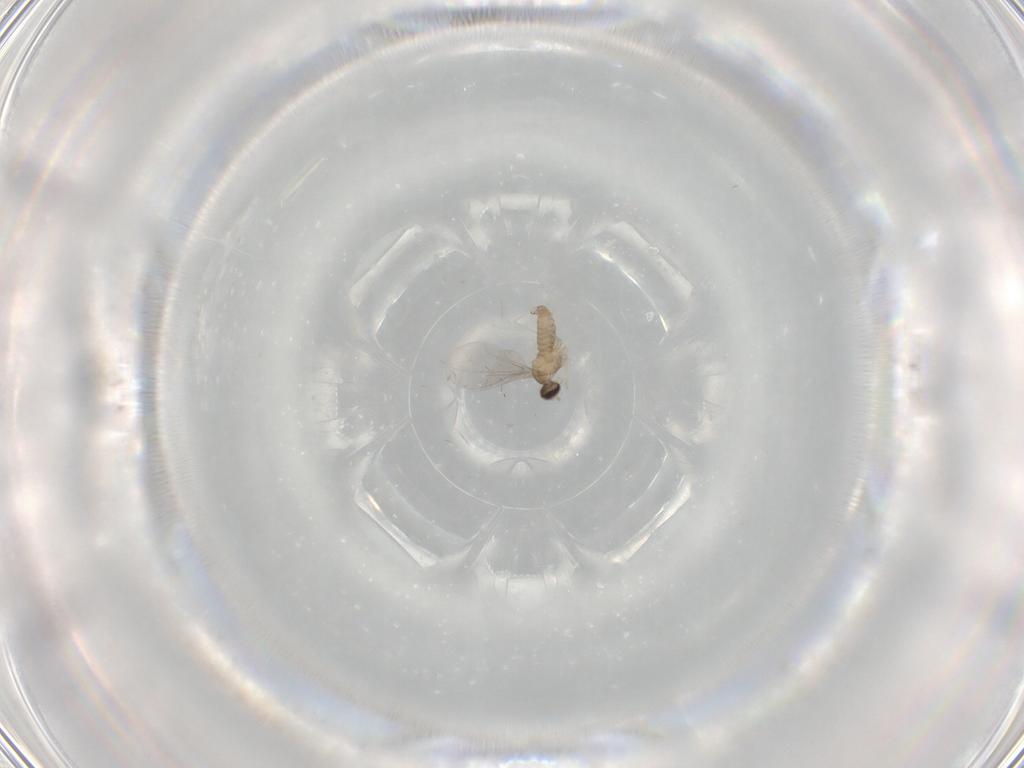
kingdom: Animalia
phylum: Arthropoda
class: Insecta
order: Diptera
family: Cecidomyiidae
